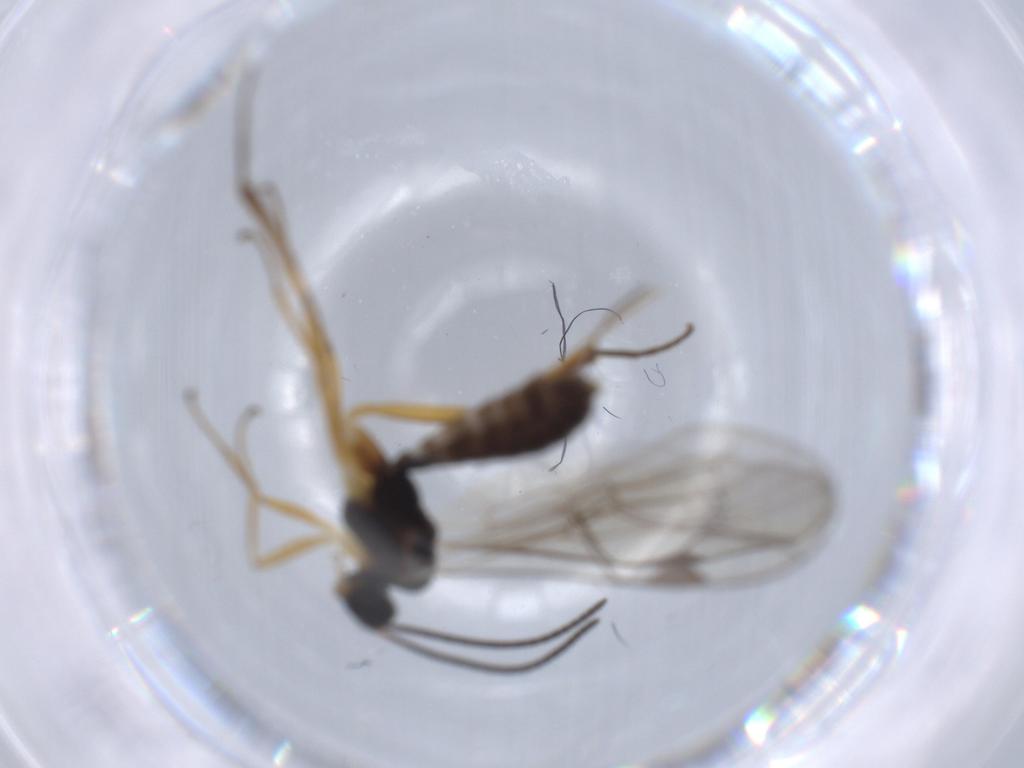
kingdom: Animalia
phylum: Arthropoda
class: Insecta
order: Hymenoptera
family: Ichneumonidae
